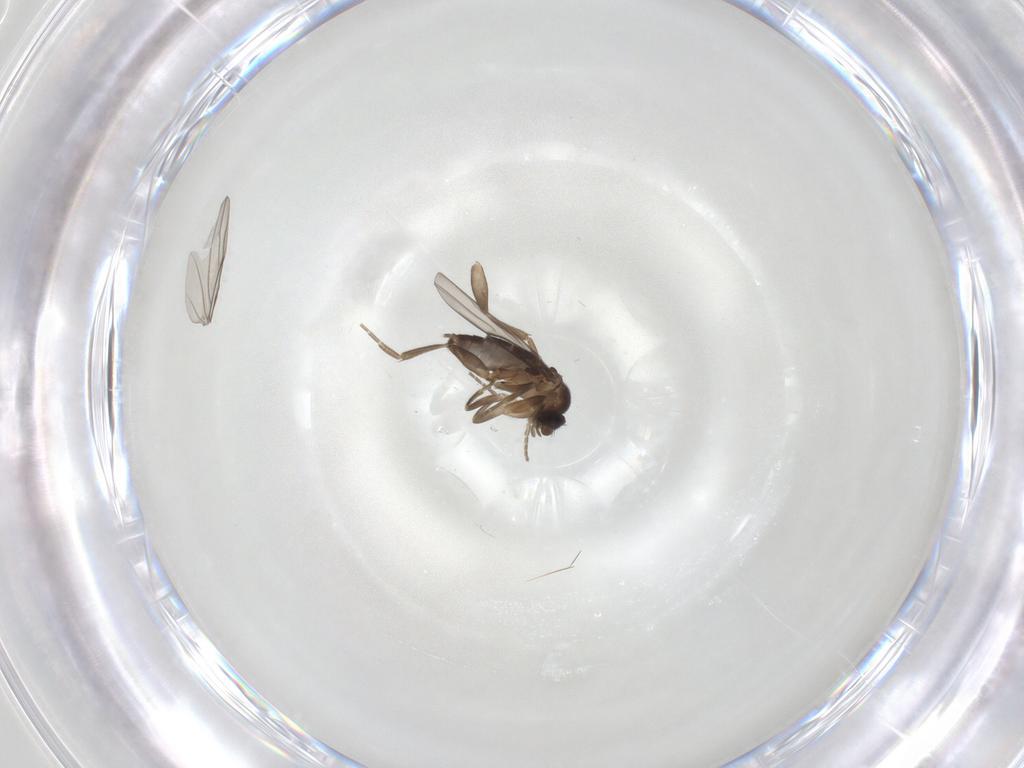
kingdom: Animalia
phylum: Arthropoda
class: Insecta
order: Diptera
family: Phoridae
